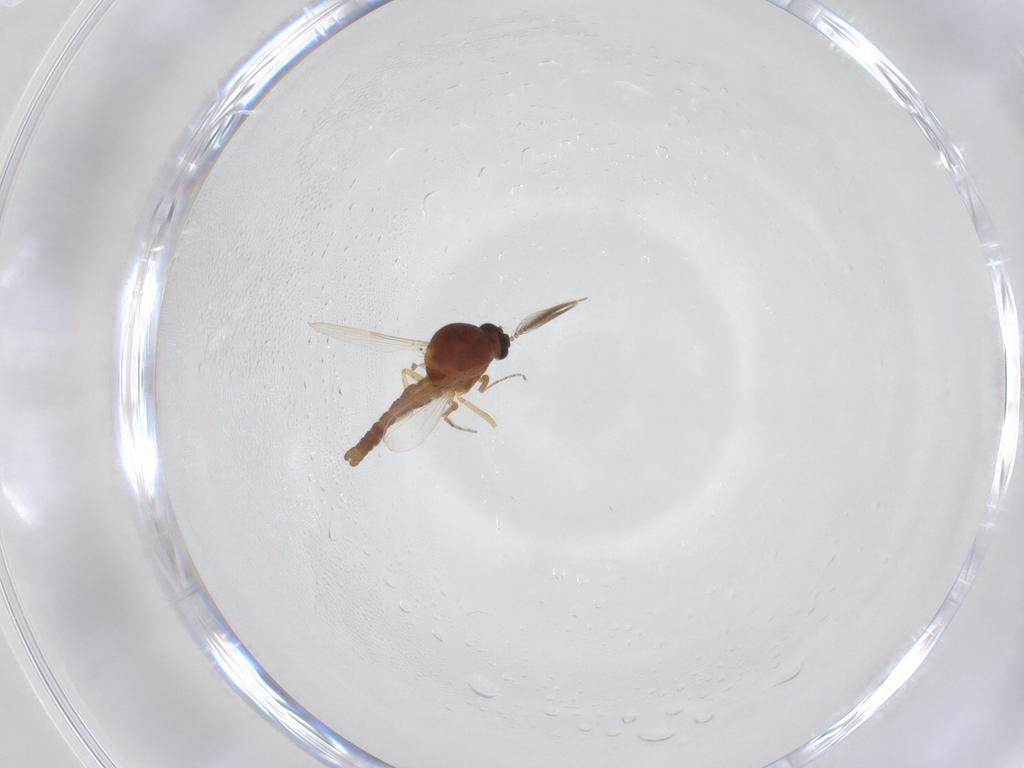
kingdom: Animalia
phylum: Arthropoda
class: Insecta
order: Diptera
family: Ceratopogonidae
